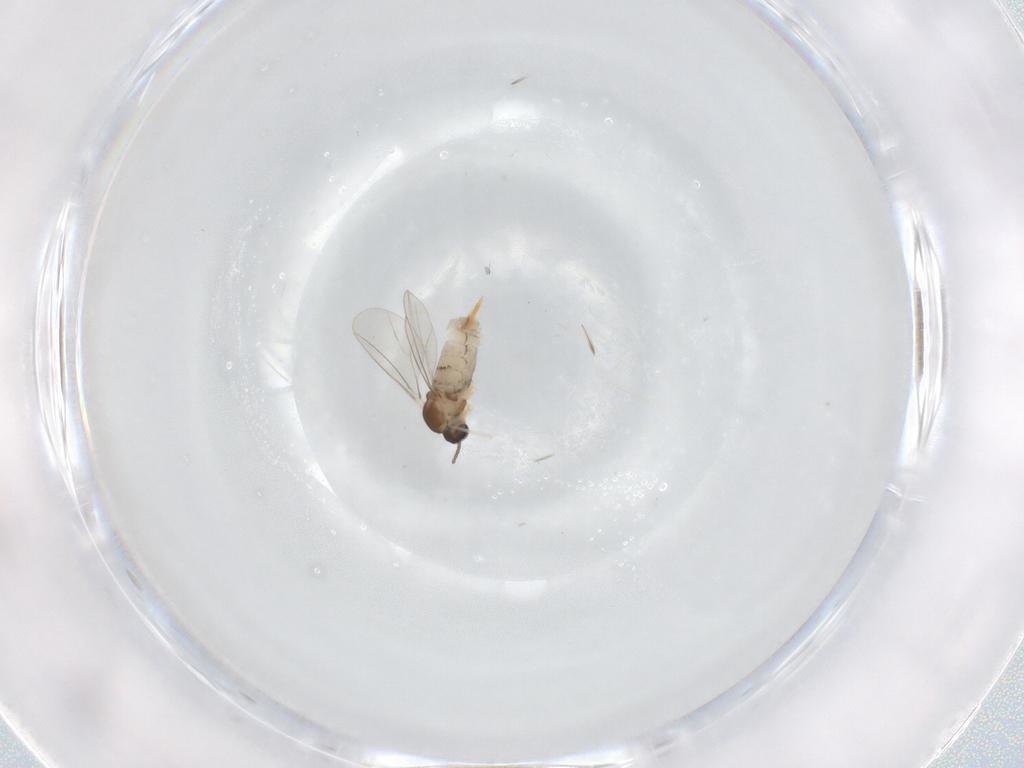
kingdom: Animalia
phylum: Arthropoda
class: Insecta
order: Diptera
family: Cecidomyiidae
